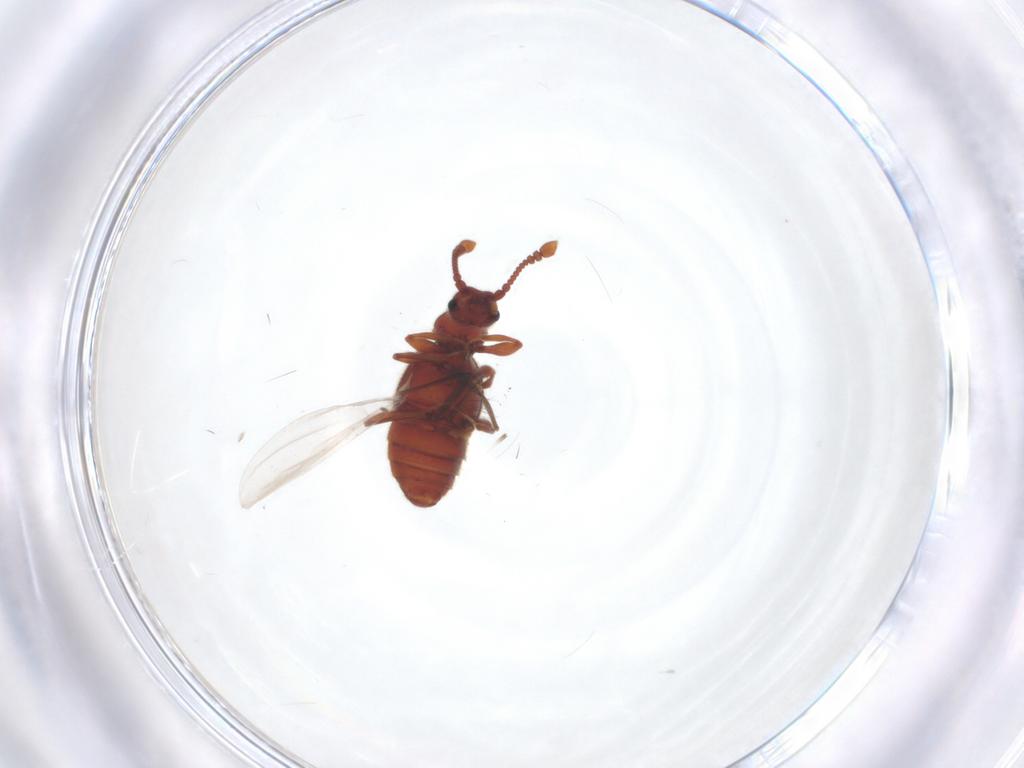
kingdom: Animalia
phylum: Arthropoda
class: Insecta
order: Coleoptera
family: Staphylinidae
